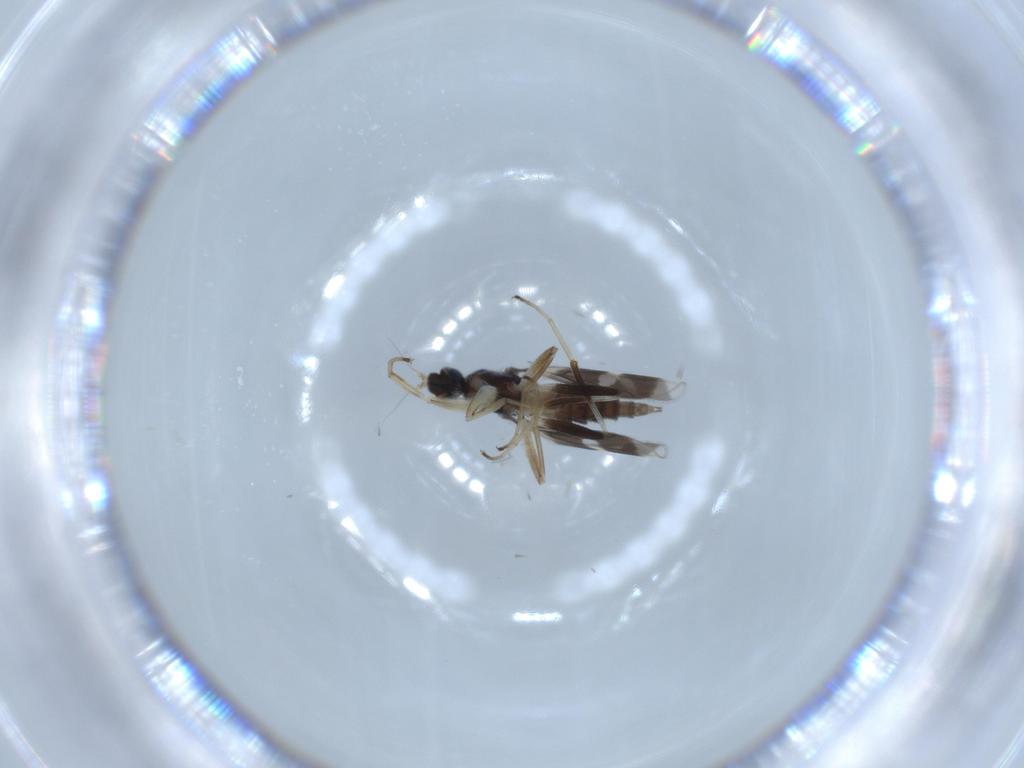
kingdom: Animalia
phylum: Arthropoda
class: Insecta
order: Diptera
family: Hybotidae
